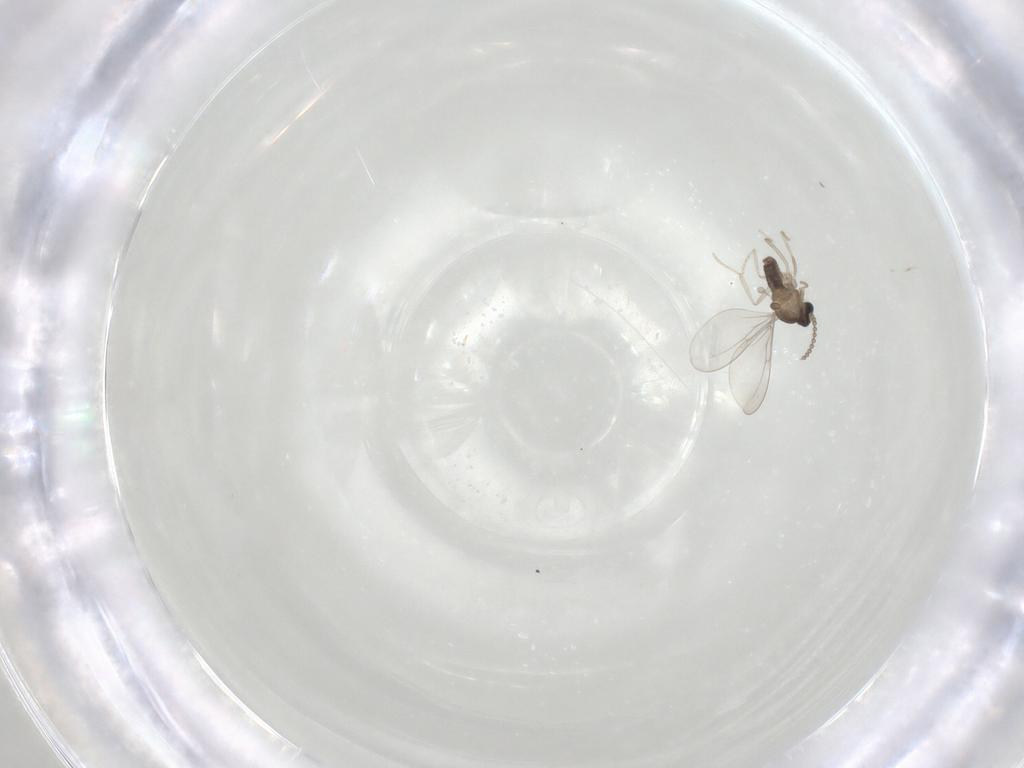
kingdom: Animalia
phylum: Arthropoda
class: Insecta
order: Diptera
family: Cecidomyiidae
